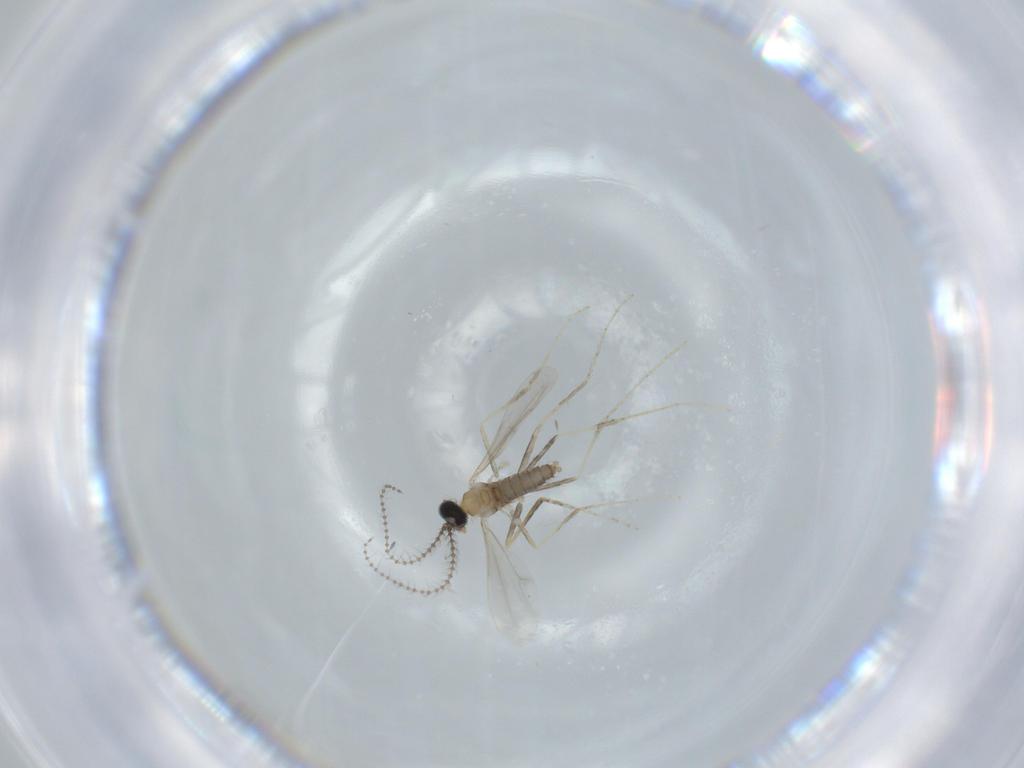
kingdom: Animalia
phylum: Arthropoda
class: Insecta
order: Diptera
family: Cecidomyiidae
